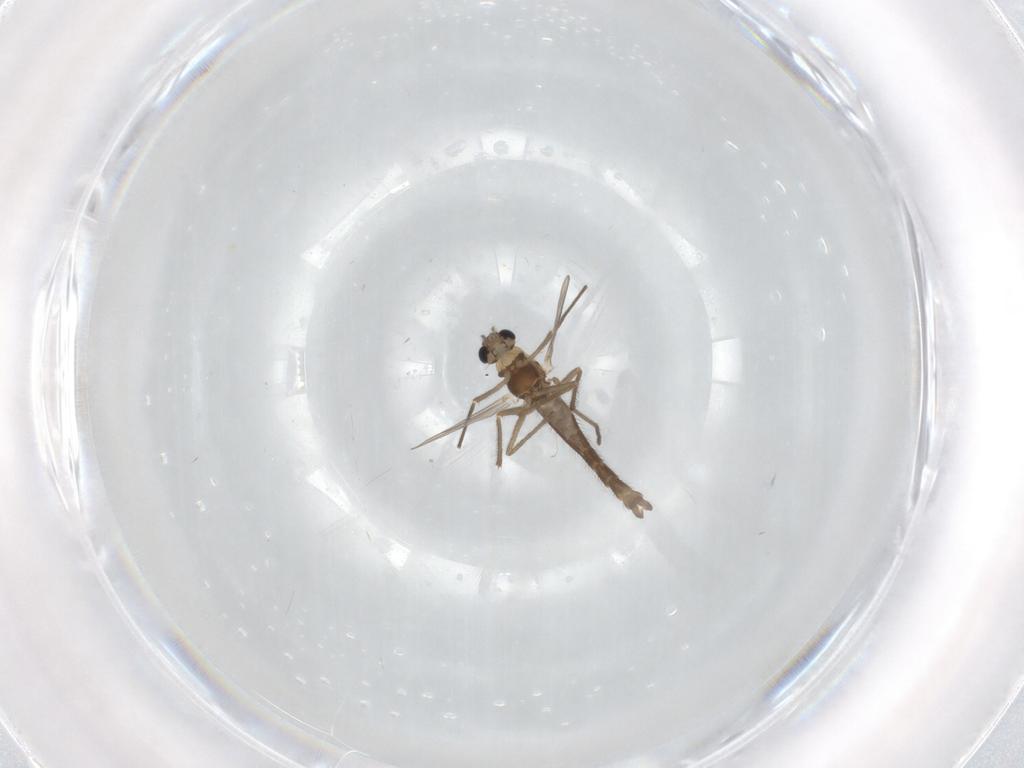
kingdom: Animalia
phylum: Arthropoda
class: Insecta
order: Diptera
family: Chironomidae
